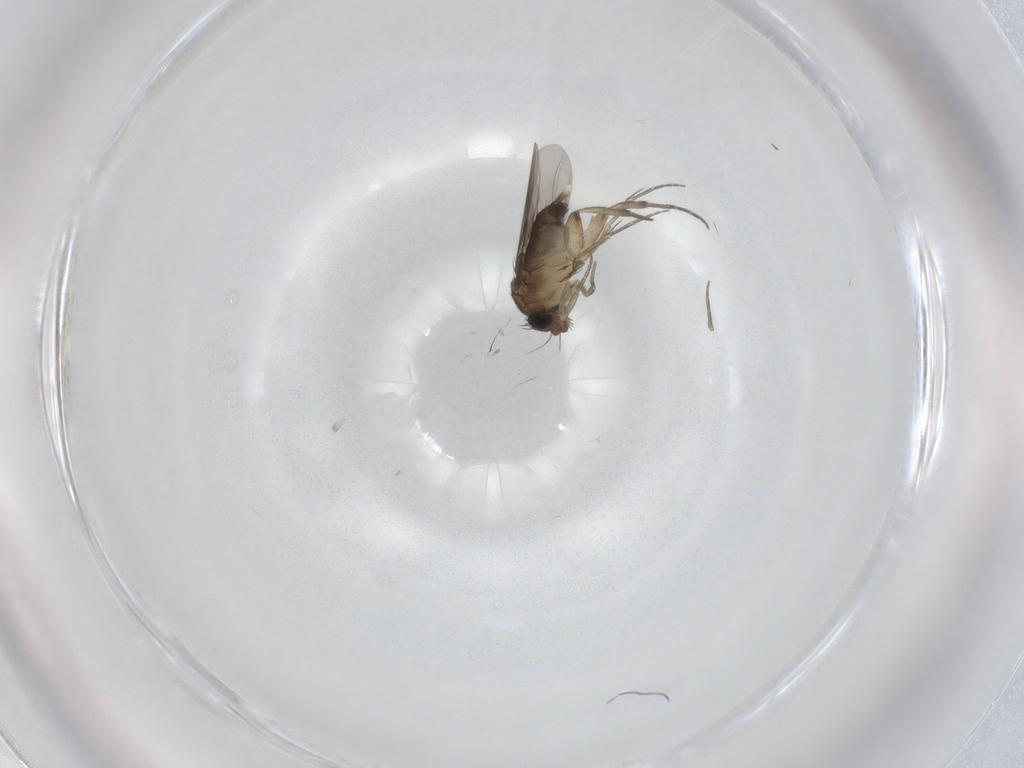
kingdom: Animalia
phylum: Arthropoda
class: Insecta
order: Diptera
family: Phoridae
